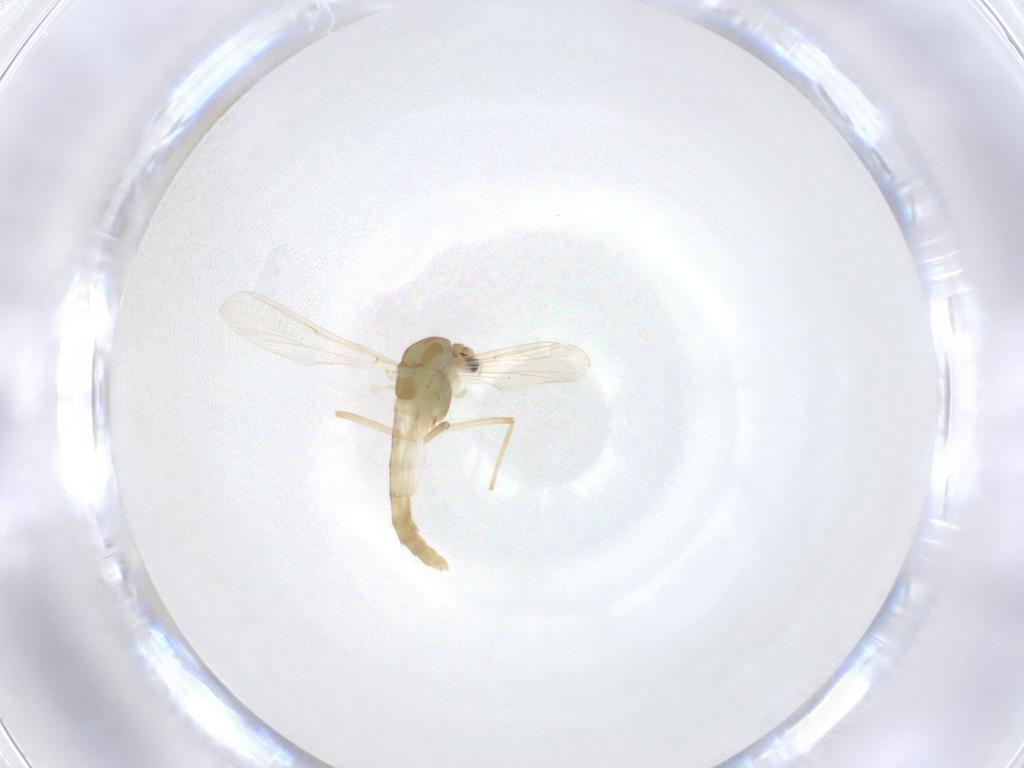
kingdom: Animalia
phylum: Arthropoda
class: Insecta
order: Diptera
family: Chironomidae
